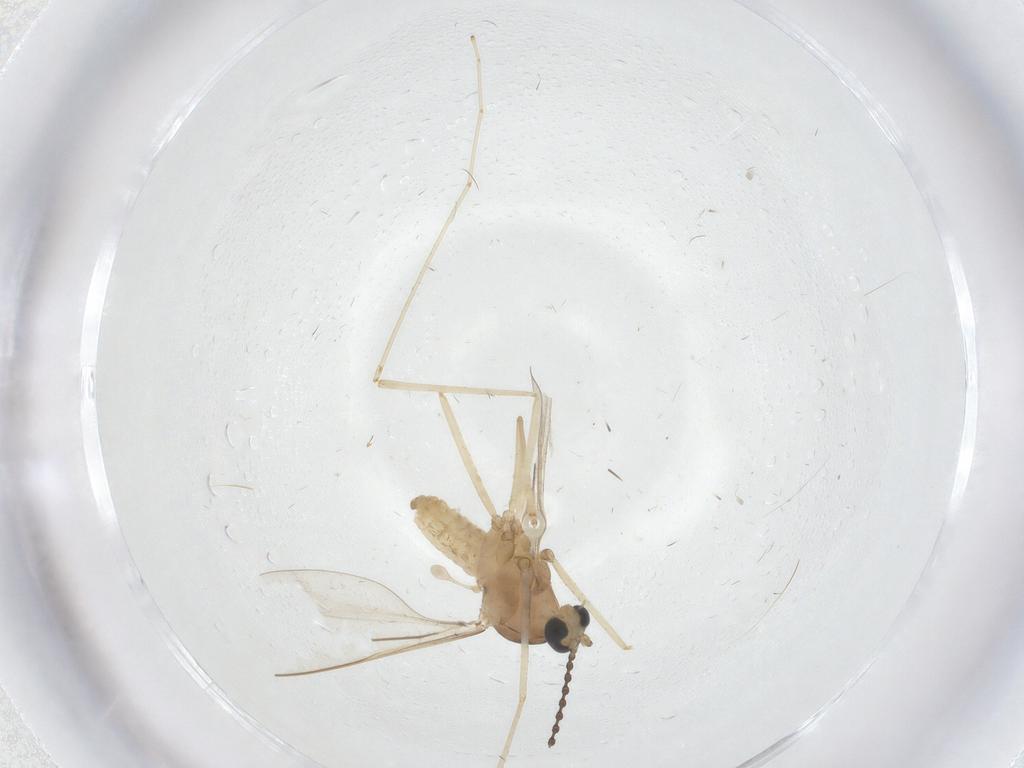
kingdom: Animalia
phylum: Arthropoda
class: Insecta
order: Diptera
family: Cecidomyiidae
